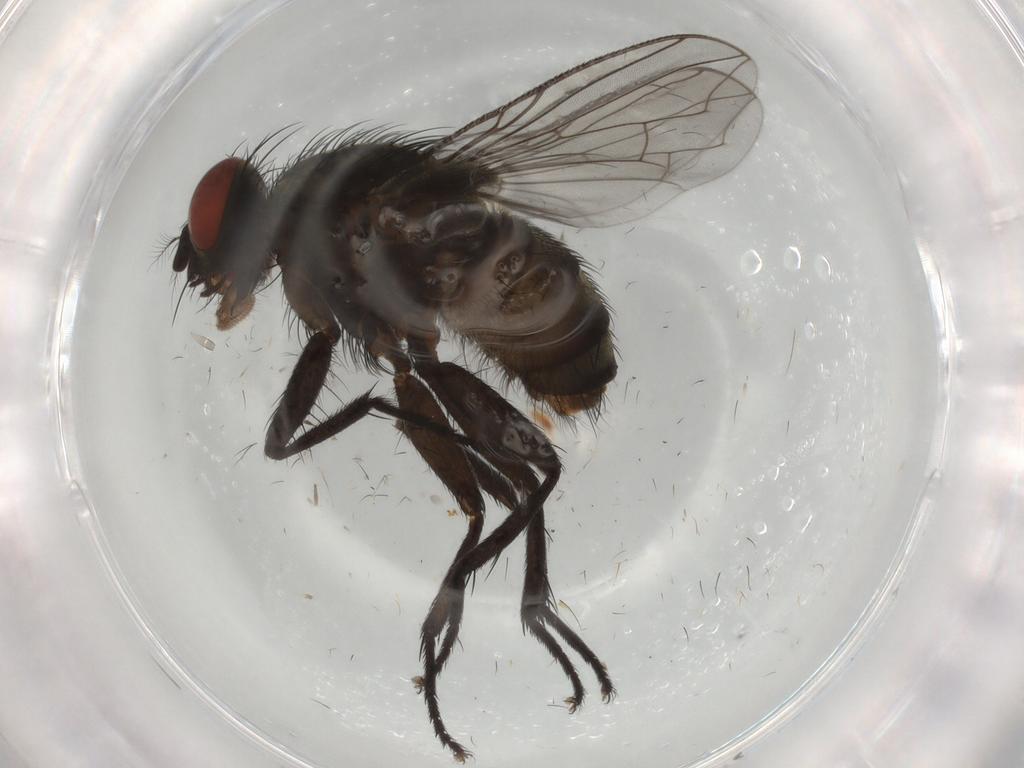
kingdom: Animalia
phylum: Arthropoda
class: Insecta
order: Diptera
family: Sarcophagidae
